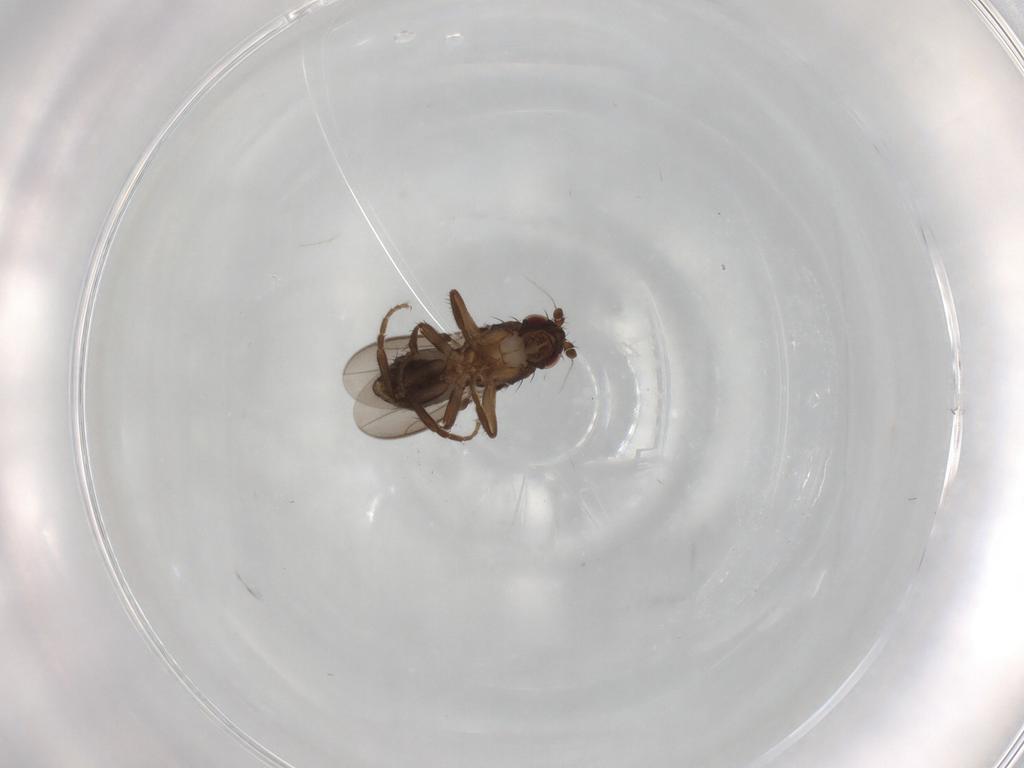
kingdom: Animalia
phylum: Arthropoda
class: Insecta
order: Diptera
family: Sphaeroceridae
